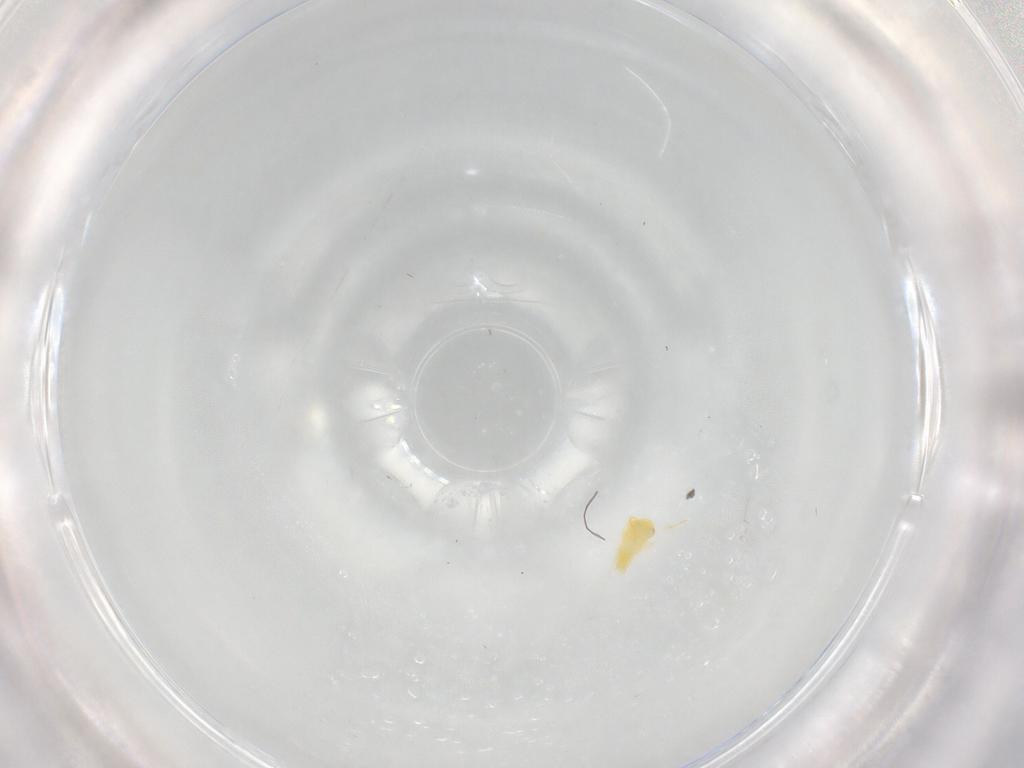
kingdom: Animalia
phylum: Arthropoda
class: Insecta
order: Hemiptera
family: Aleyrodidae
